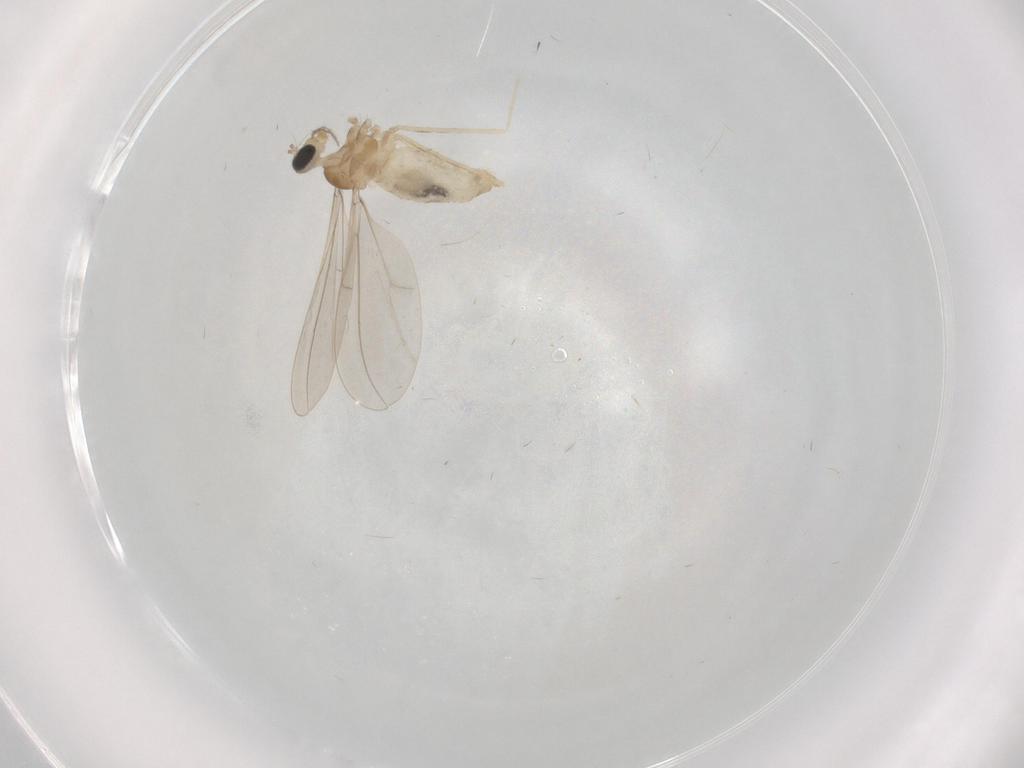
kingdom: Animalia
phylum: Arthropoda
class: Insecta
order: Diptera
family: Cecidomyiidae
